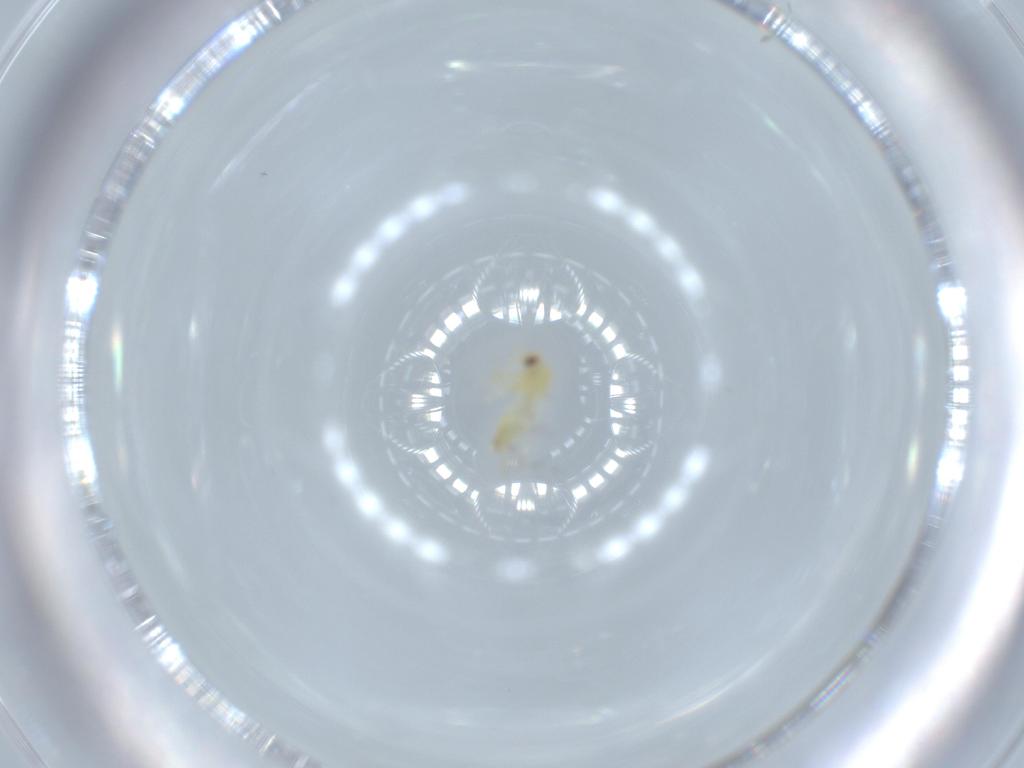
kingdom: Animalia
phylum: Arthropoda
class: Insecta
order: Hemiptera
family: Aleyrodidae
